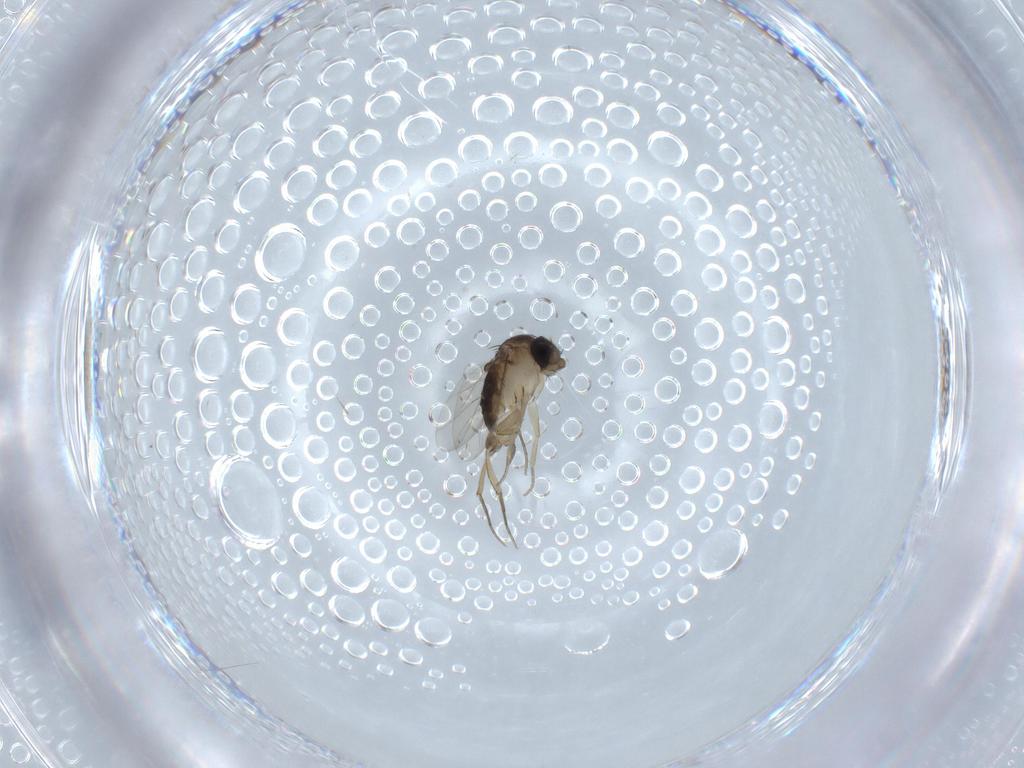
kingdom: Animalia
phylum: Arthropoda
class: Insecta
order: Diptera
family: Phoridae
